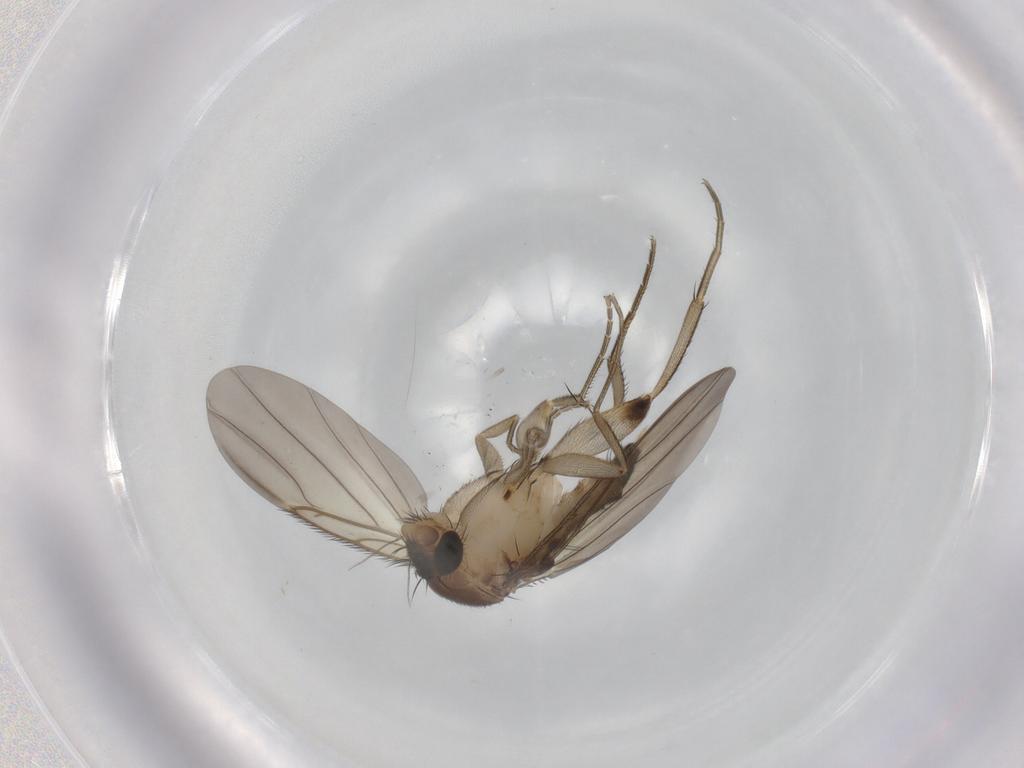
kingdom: Animalia
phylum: Arthropoda
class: Insecta
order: Diptera
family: Phoridae
